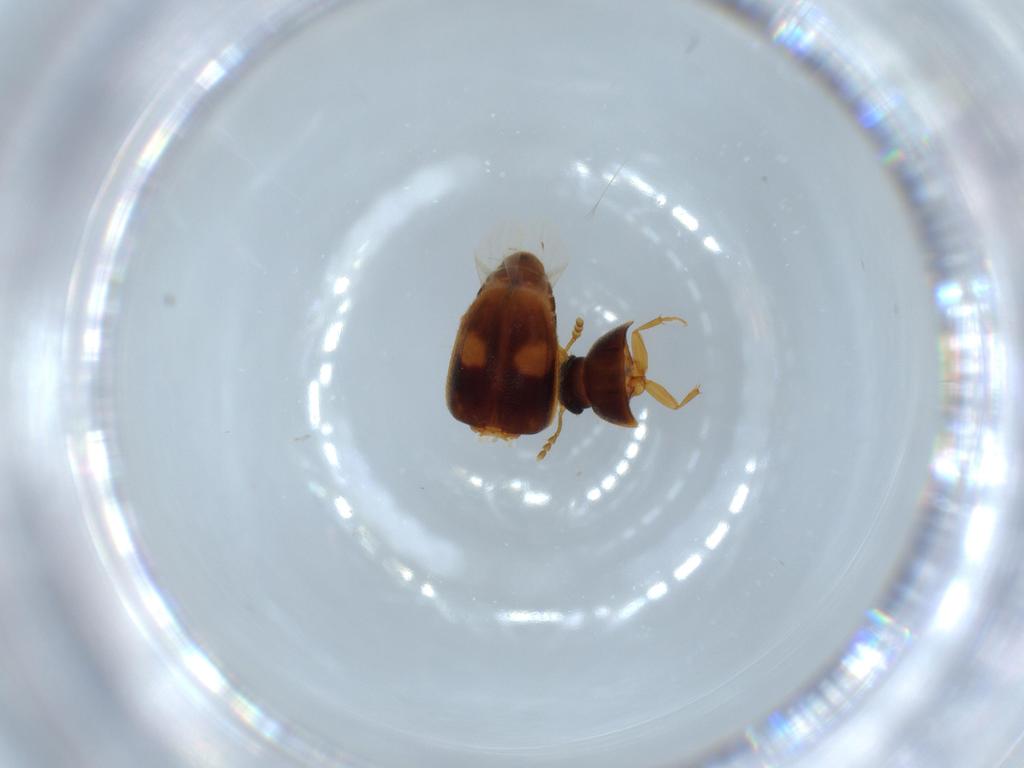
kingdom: Animalia
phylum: Arthropoda
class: Insecta
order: Coleoptera
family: Mycetophagidae
